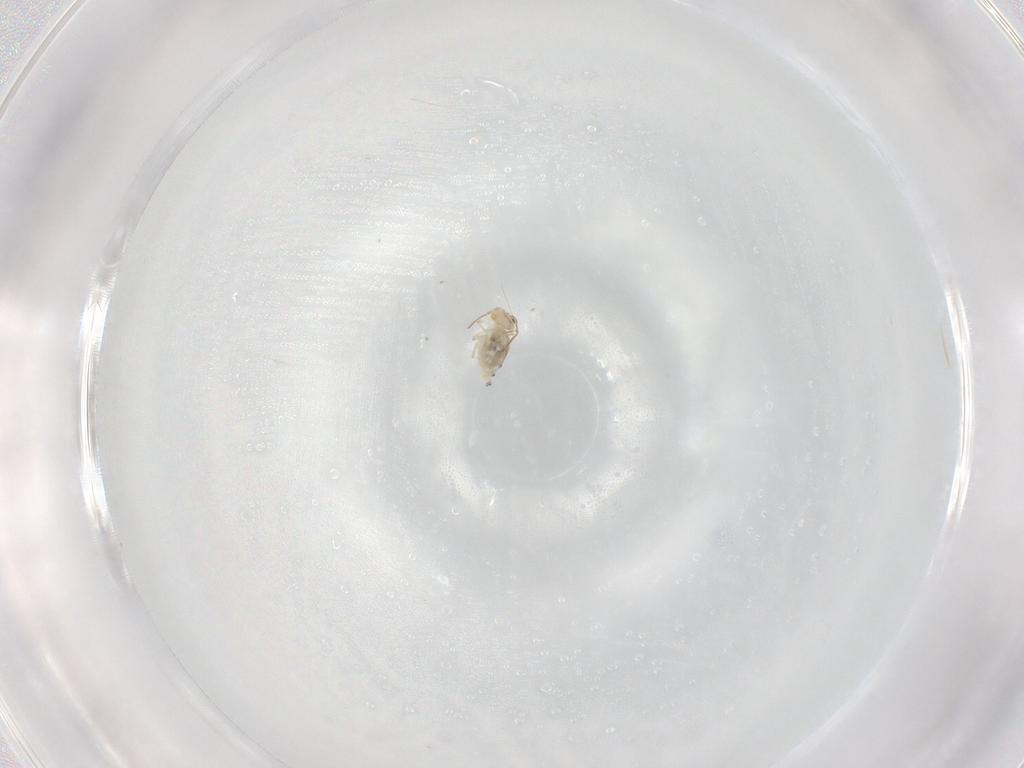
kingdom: Animalia
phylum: Arthropoda
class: Collembola
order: Symphypleona
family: Bourletiellidae
